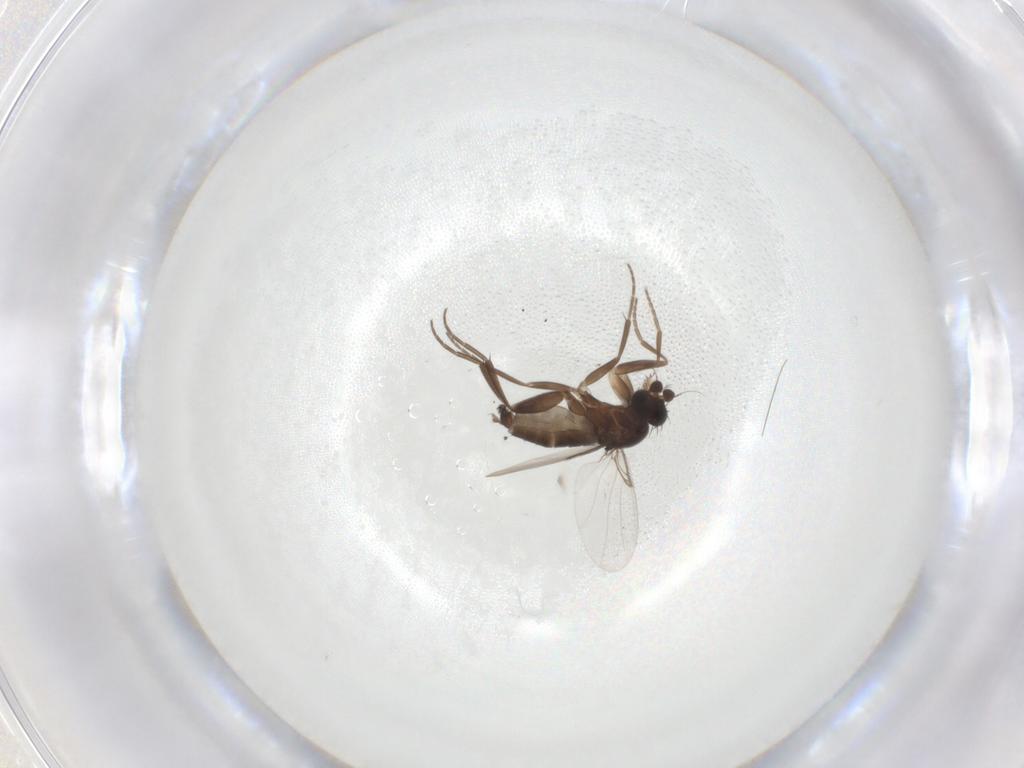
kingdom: Animalia
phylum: Arthropoda
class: Insecta
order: Diptera
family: Phoridae
